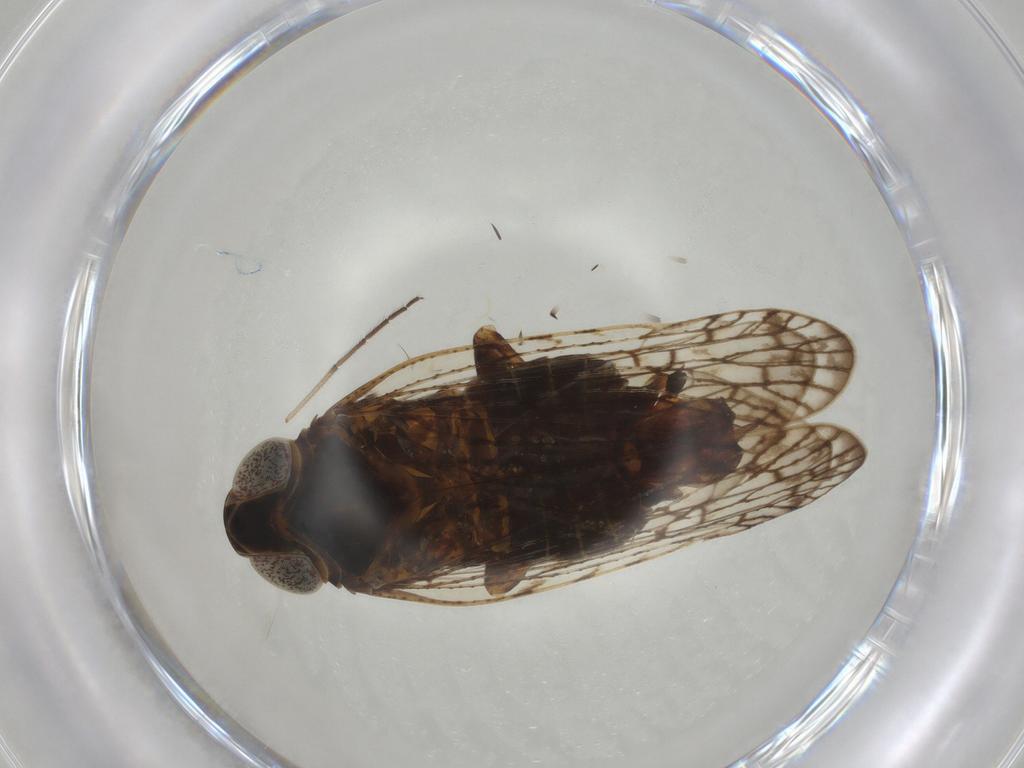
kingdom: Animalia
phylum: Arthropoda
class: Insecta
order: Hemiptera
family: Cixiidae
